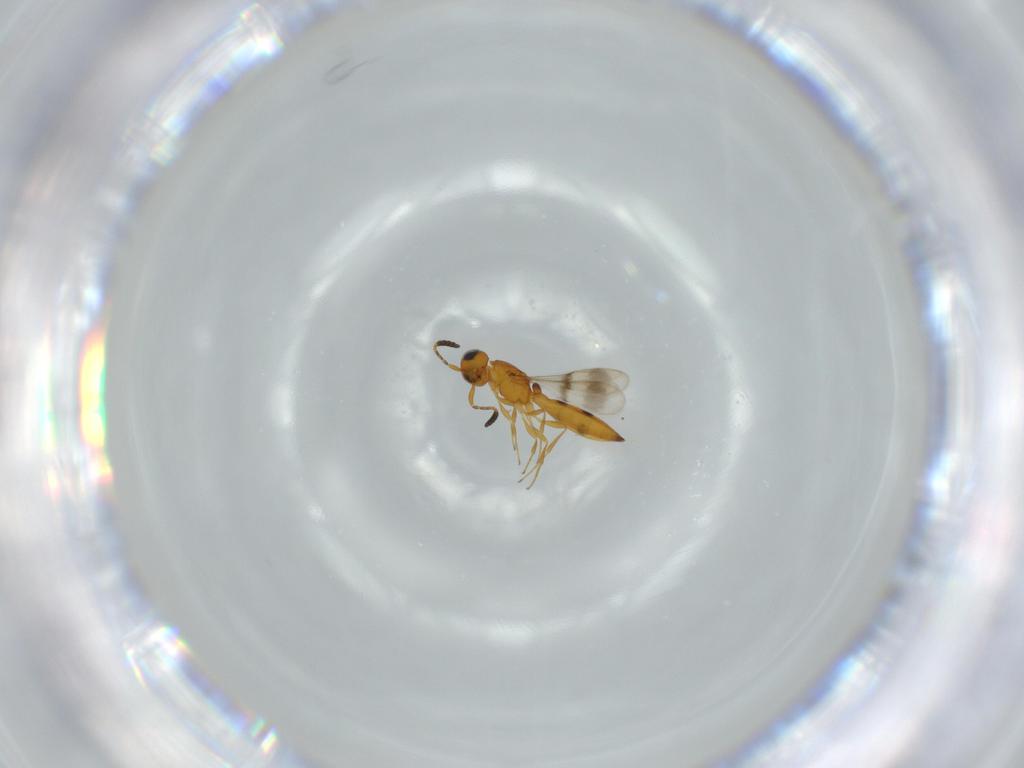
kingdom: Animalia
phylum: Arthropoda
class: Insecta
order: Hymenoptera
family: Scelionidae
